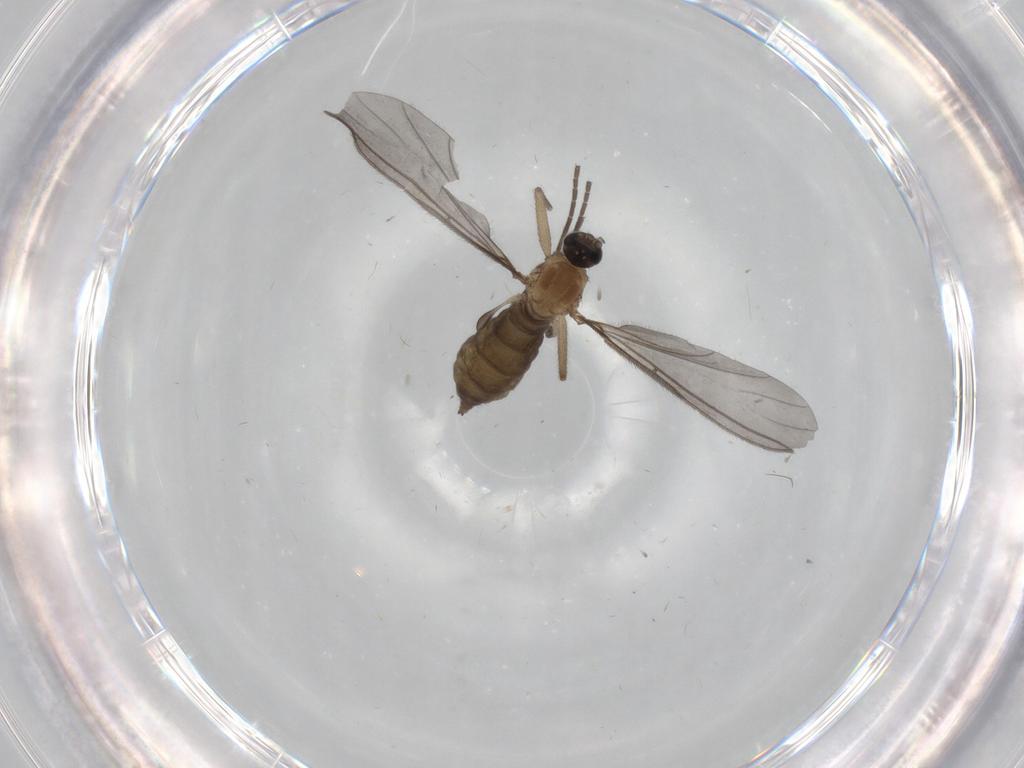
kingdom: Animalia
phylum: Arthropoda
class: Insecta
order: Diptera
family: Sciaridae
